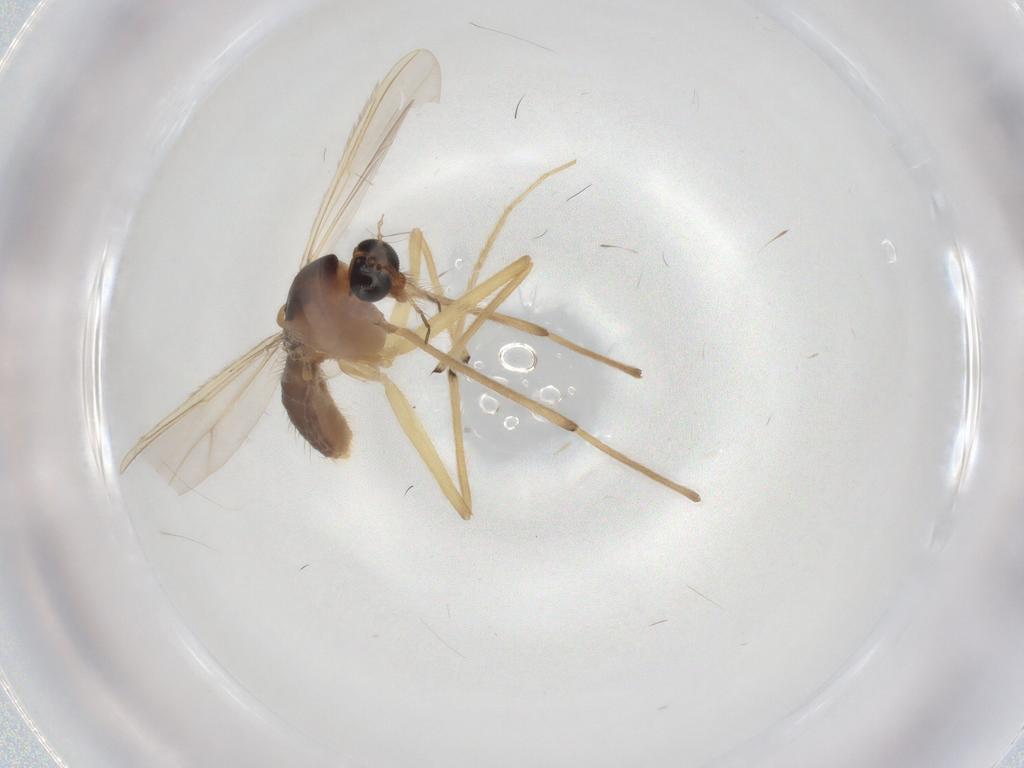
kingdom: Animalia
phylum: Arthropoda
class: Insecta
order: Diptera
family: Chironomidae
